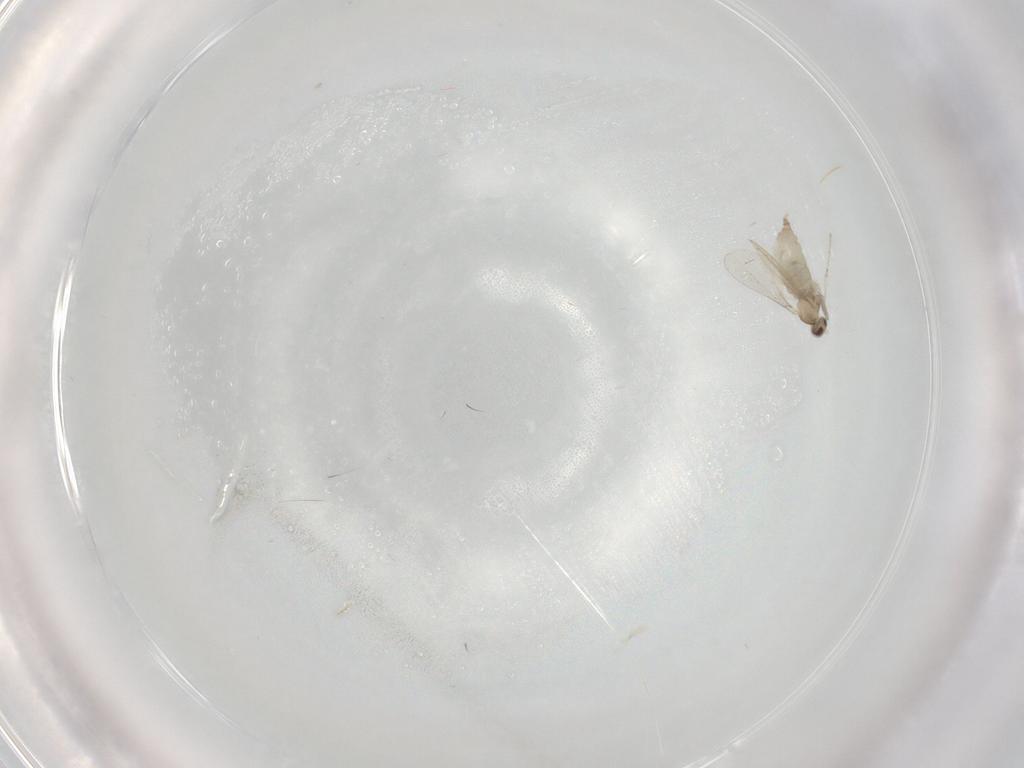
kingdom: Animalia
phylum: Arthropoda
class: Insecta
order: Diptera
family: Cecidomyiidae
